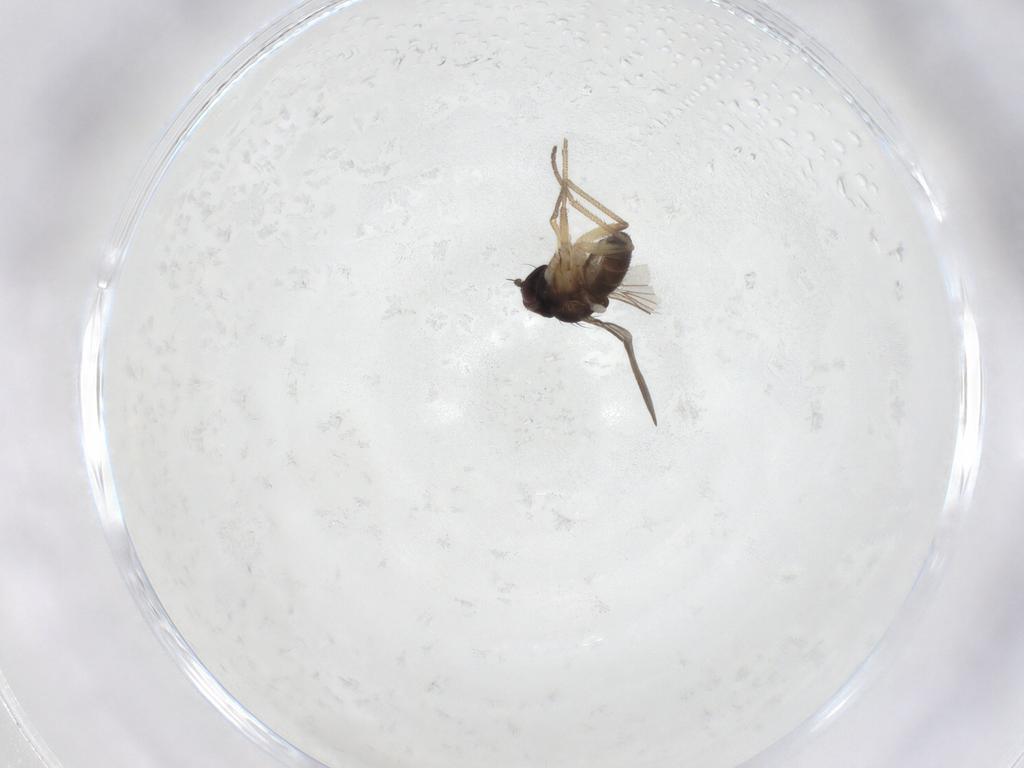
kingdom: Animalia
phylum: Arthropoda
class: Insecta
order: Diptera
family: Dolichopodidae
